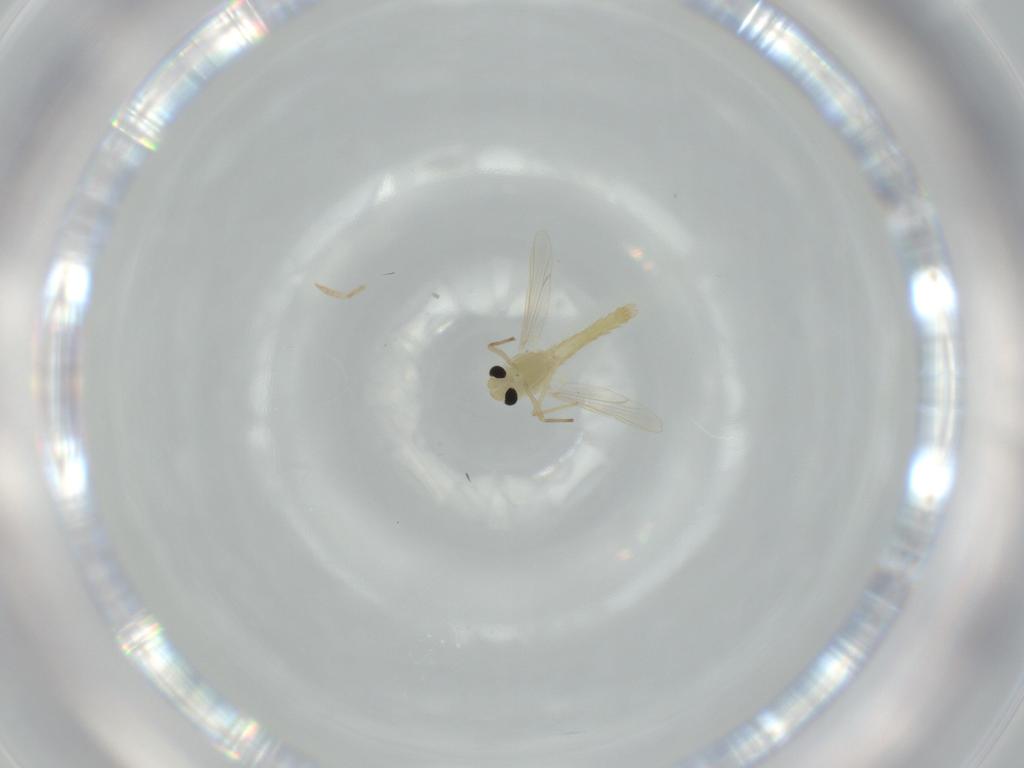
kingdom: Animalia
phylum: Arthropoda
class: Insecta
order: Diptera
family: Chironomidae
